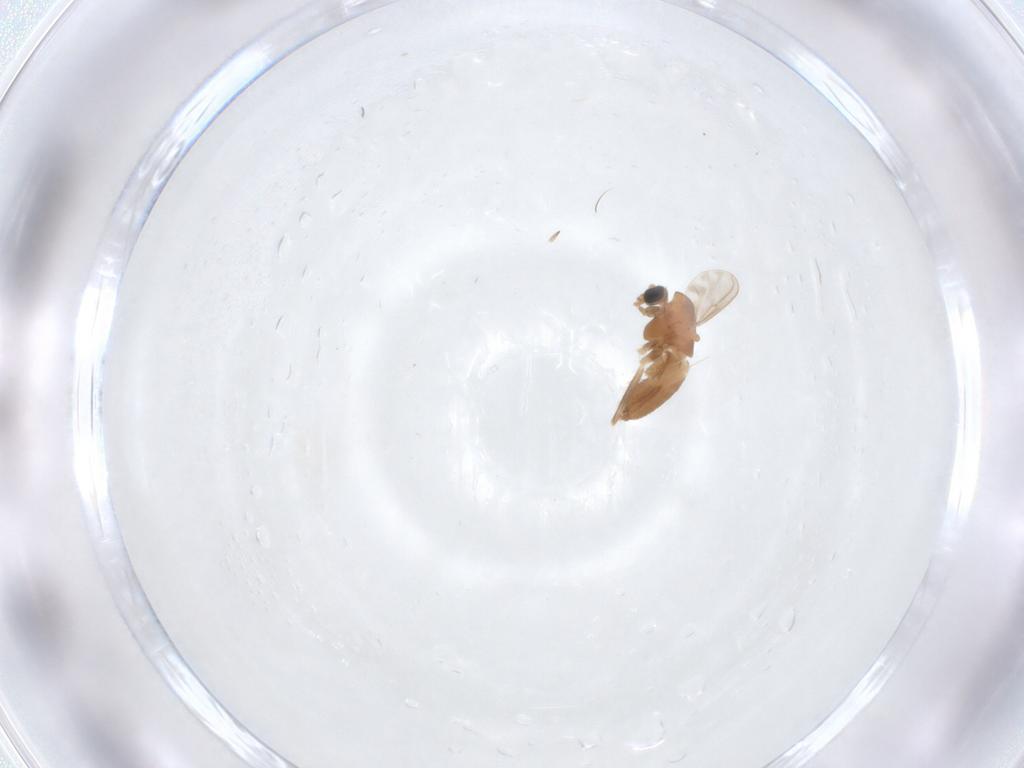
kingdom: Animalia
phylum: Arthropoda
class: Insecta
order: Diptera
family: Chironomidae
